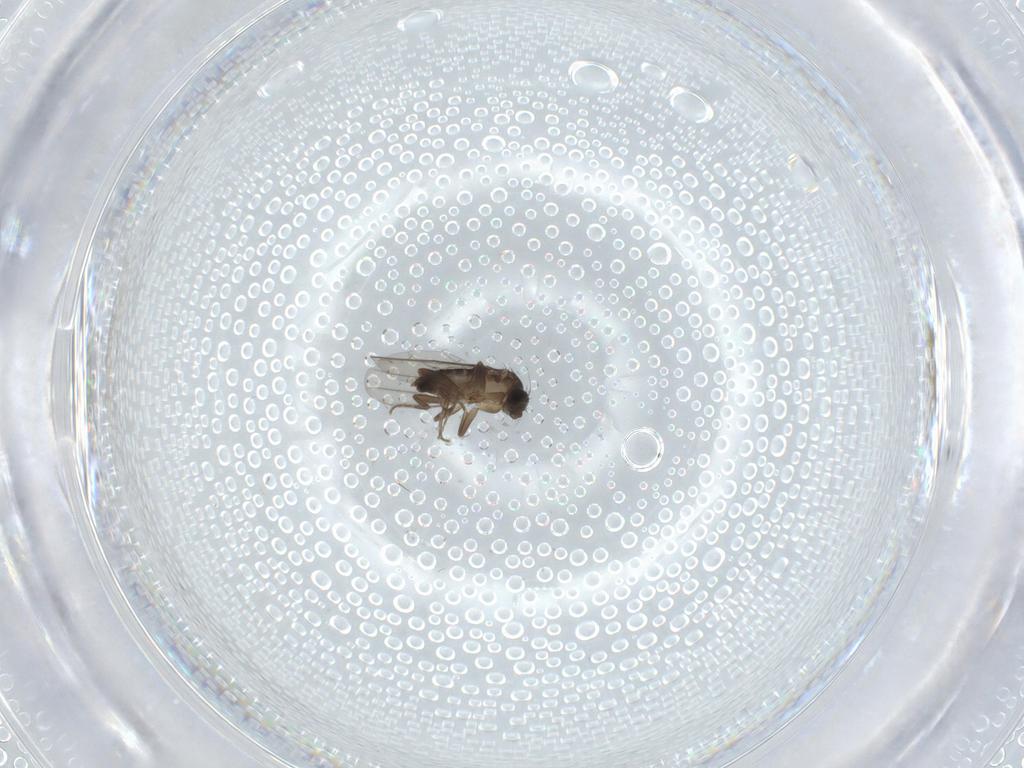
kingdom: Animalia
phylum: Arthropoda
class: Insecta
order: Diptera
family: Phoridae
